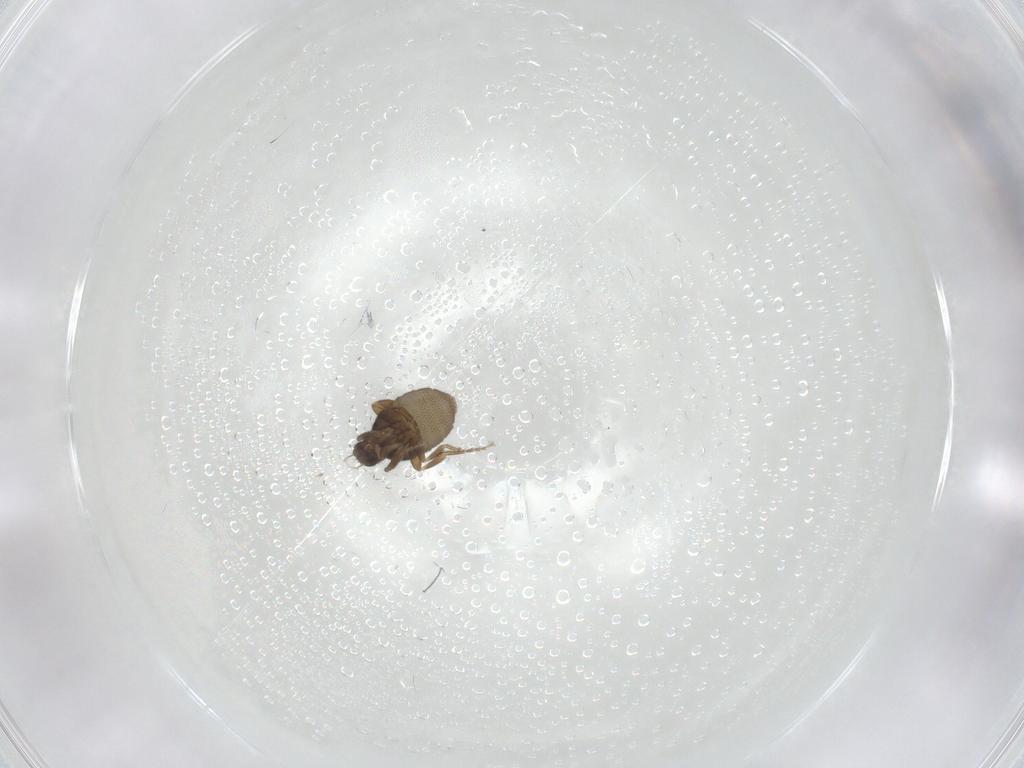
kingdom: Animalia
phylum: Arthropoda
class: Insecta
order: Diptera
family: Phoridae
